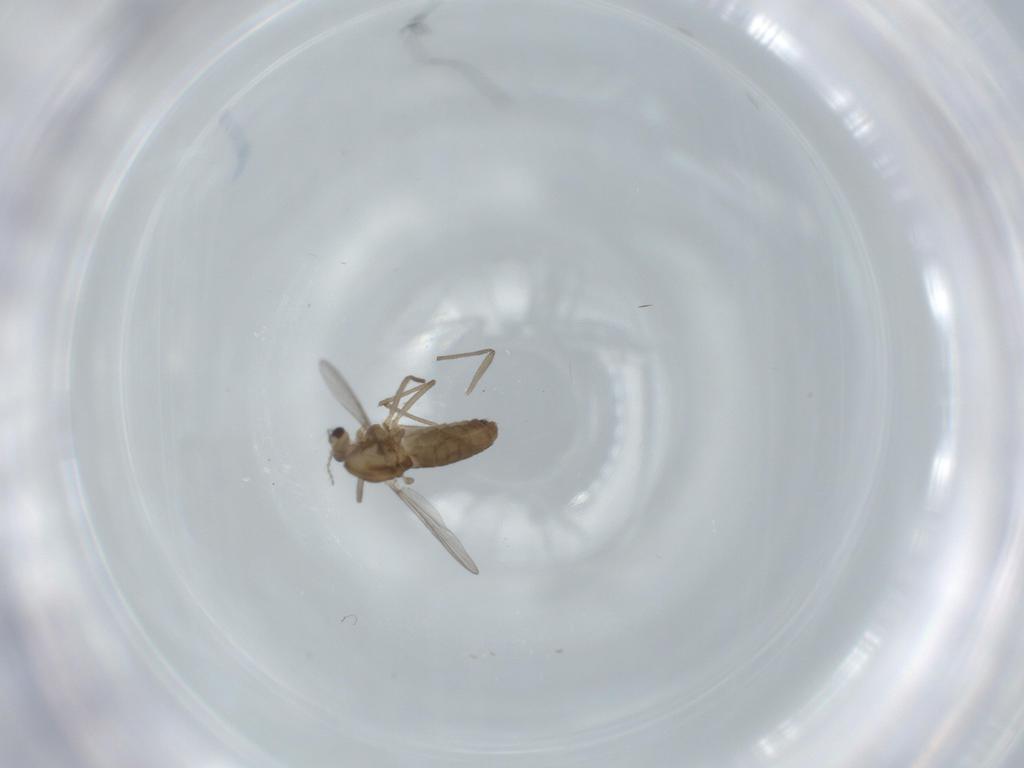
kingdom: Animalia
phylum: Arthropoda
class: Insecta
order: Diptera
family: Chironomidae
